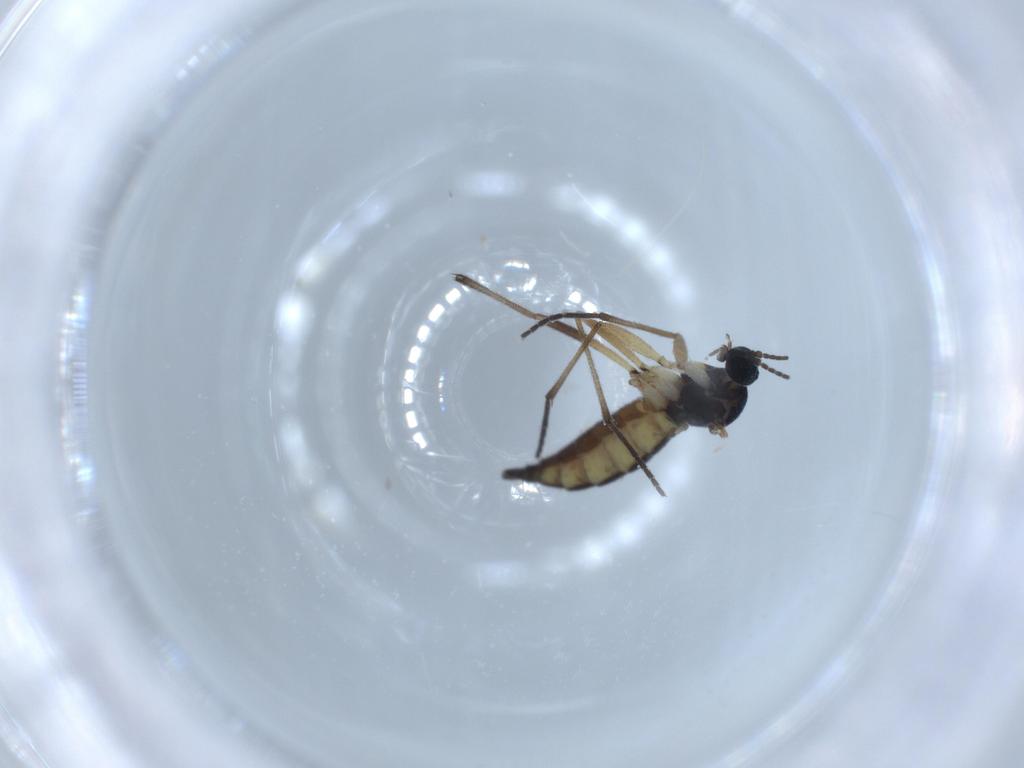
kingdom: Animalia
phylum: Arthropoda
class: Insecta
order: Diptera
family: Sciaridae
